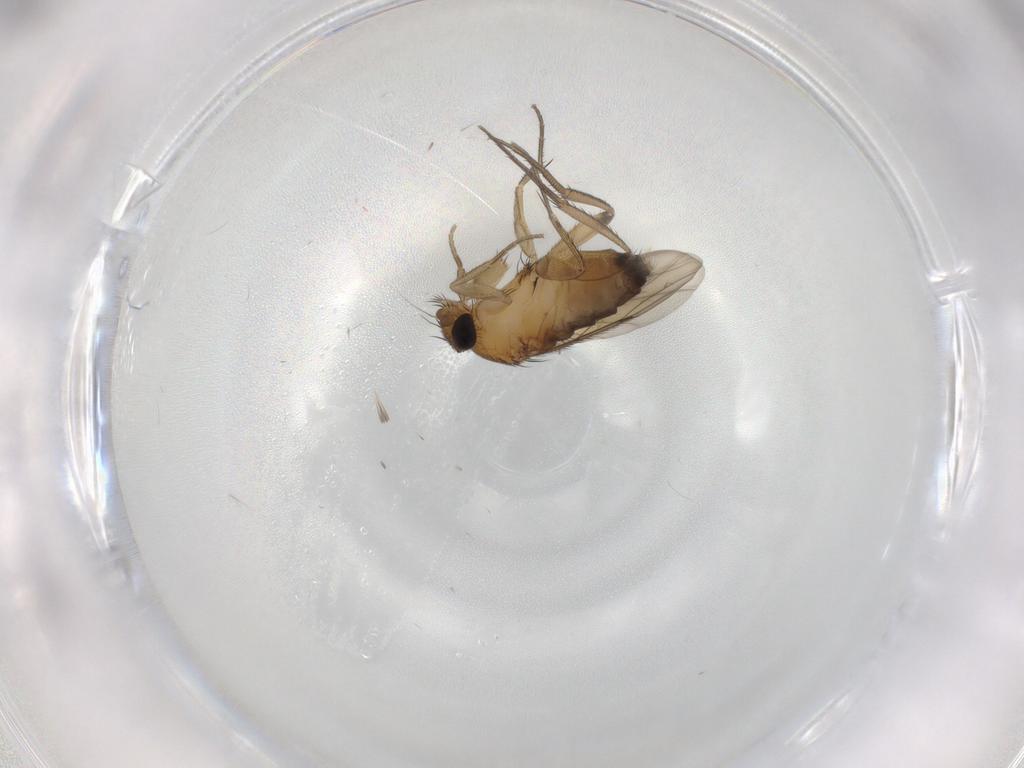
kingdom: Animalia
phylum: Arthropoda
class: Insecta
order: Diptera
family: Phoridae
